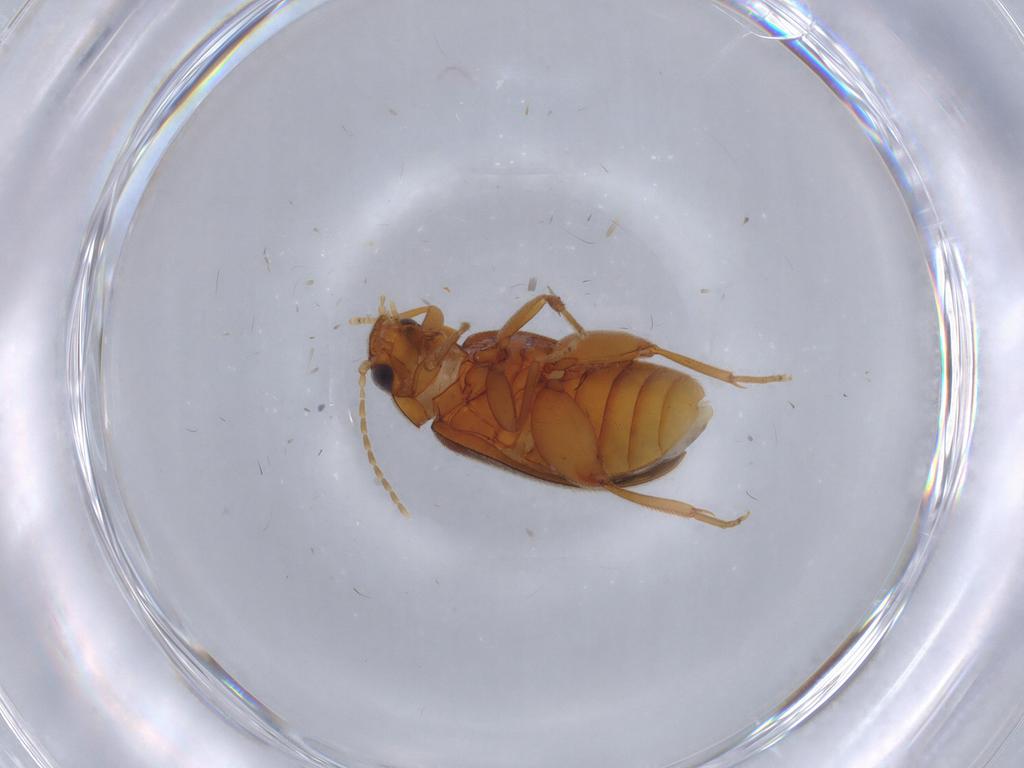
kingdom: Animalia
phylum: Arthropoda
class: Insecta
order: Coleoptera
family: Scirtidae
